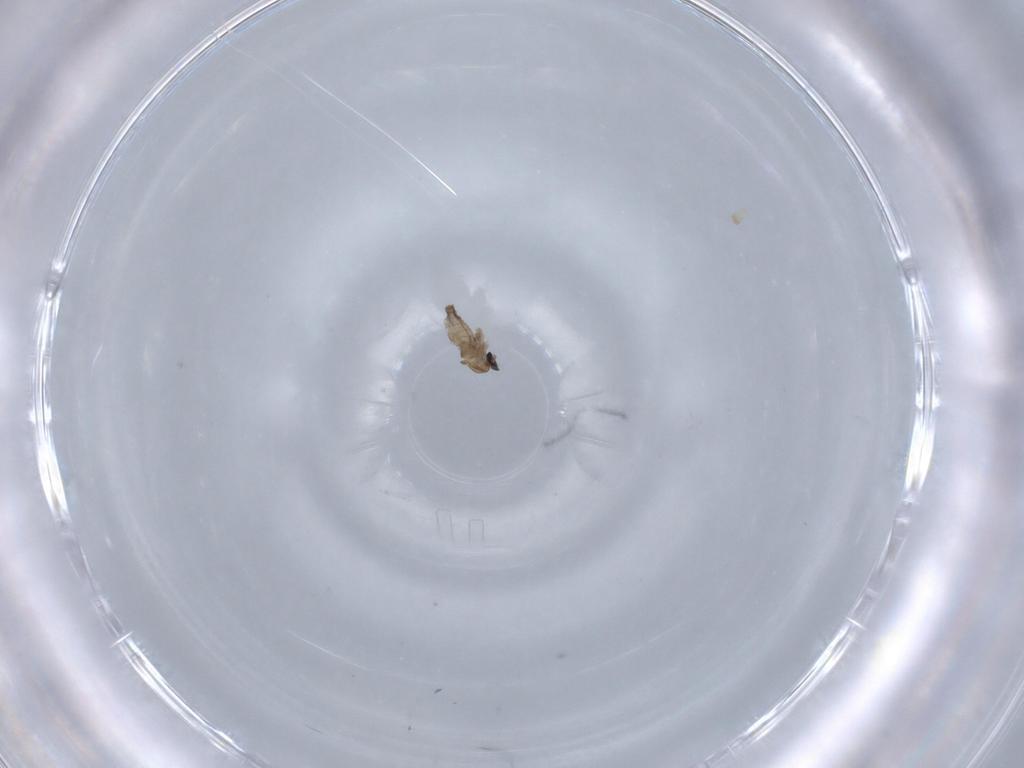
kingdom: Animalia
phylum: Arthropoda
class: Insecta
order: Diptera
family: Cecidomyiidae
